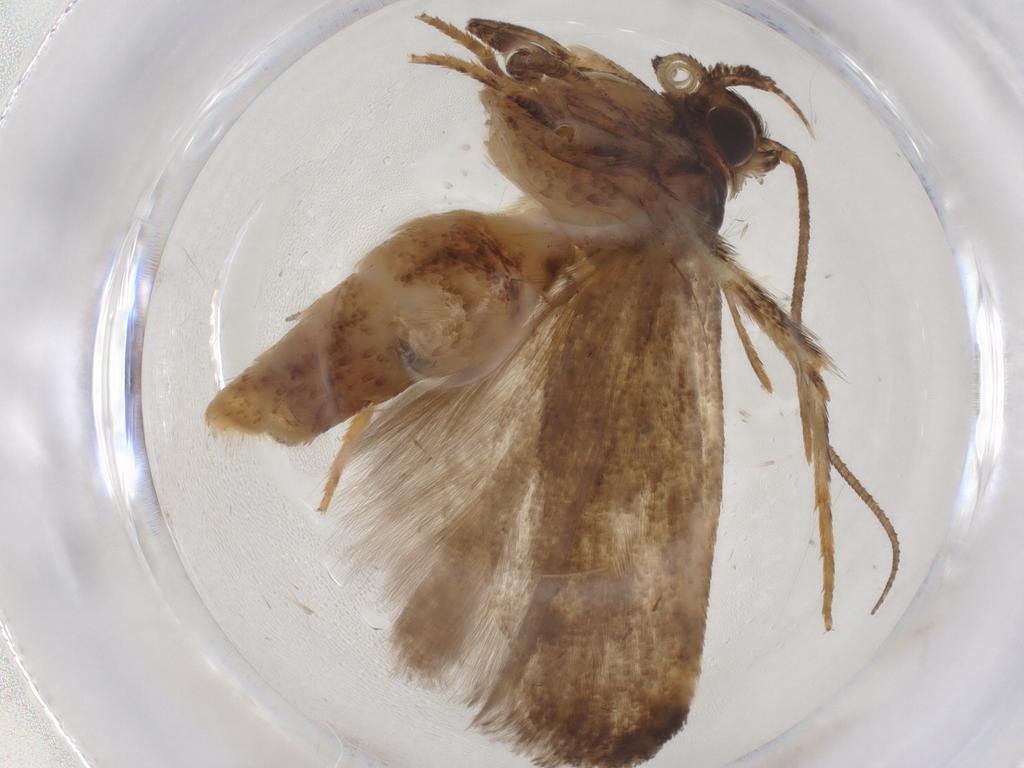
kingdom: Animalia
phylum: Arthropoda
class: Insecta
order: Lepidoptera
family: Gelechiidae
